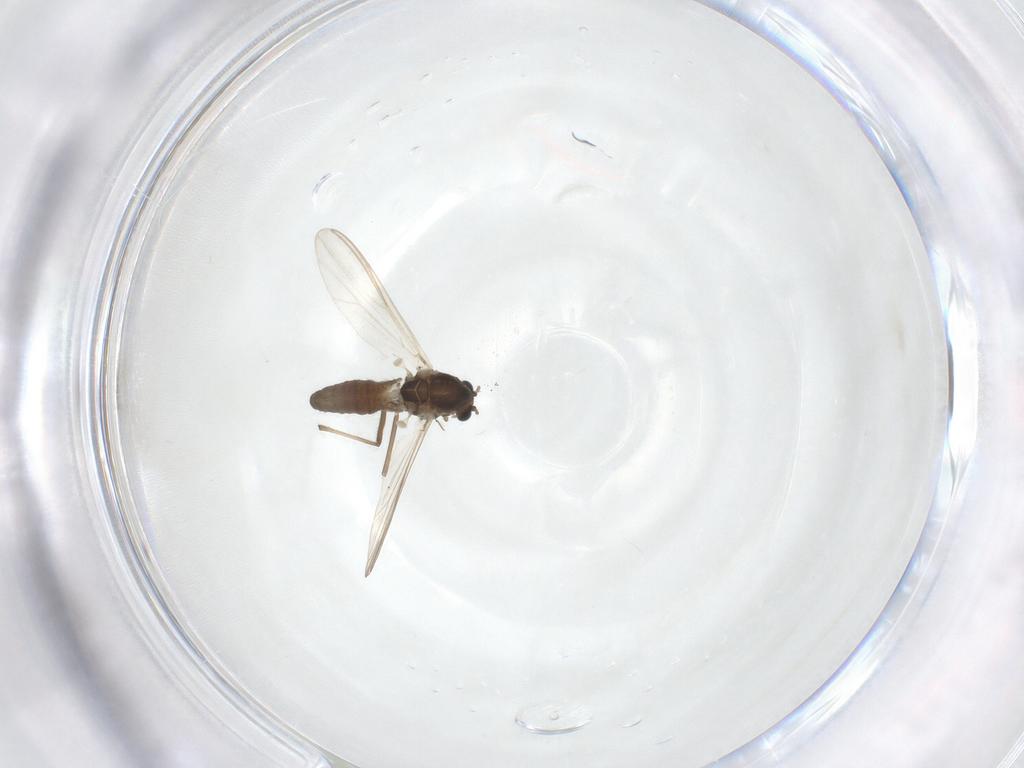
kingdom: Animalia
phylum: Arthropoda
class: Insecta
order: Diptera
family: Chironomidae
